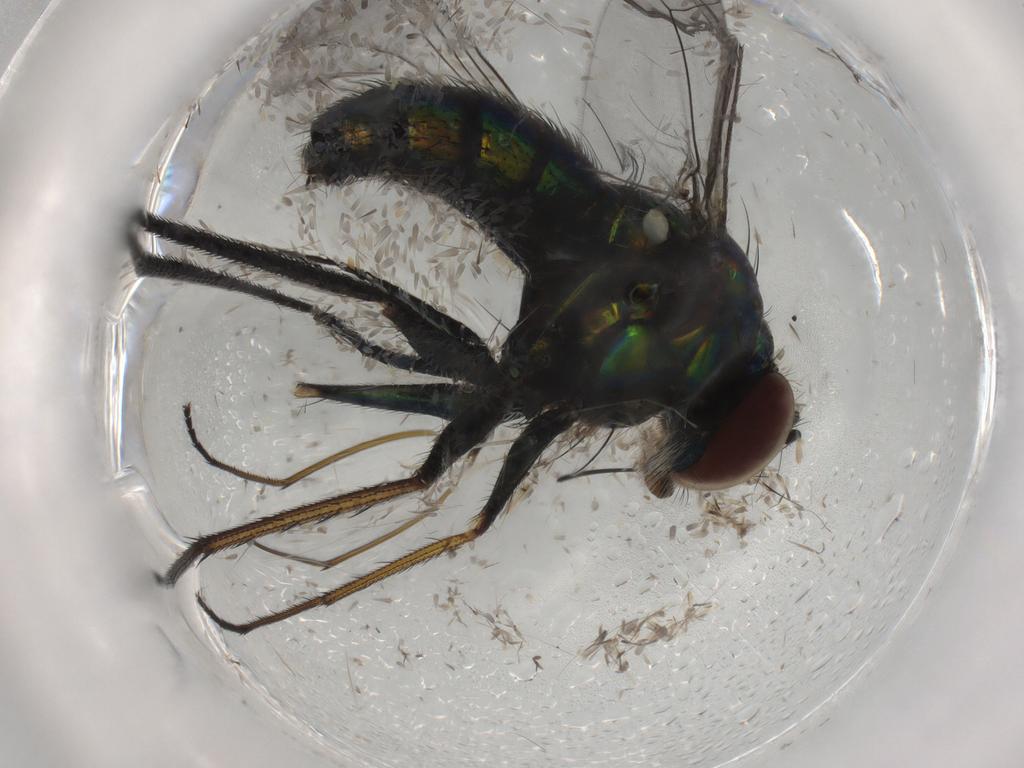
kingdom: Animalia
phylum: Arthropoda
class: Insecta
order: Diptera
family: Dolichopodidae
